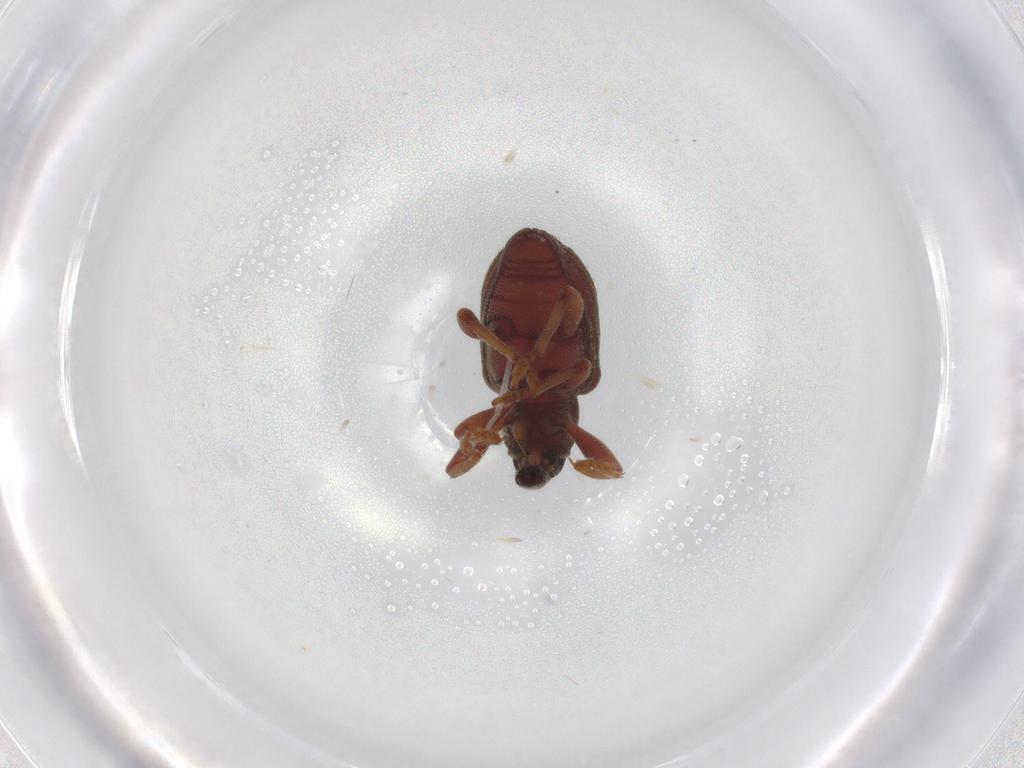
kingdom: Animalia
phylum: Arthropoda
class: Insecta
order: Coleoptera
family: Curculionidae
